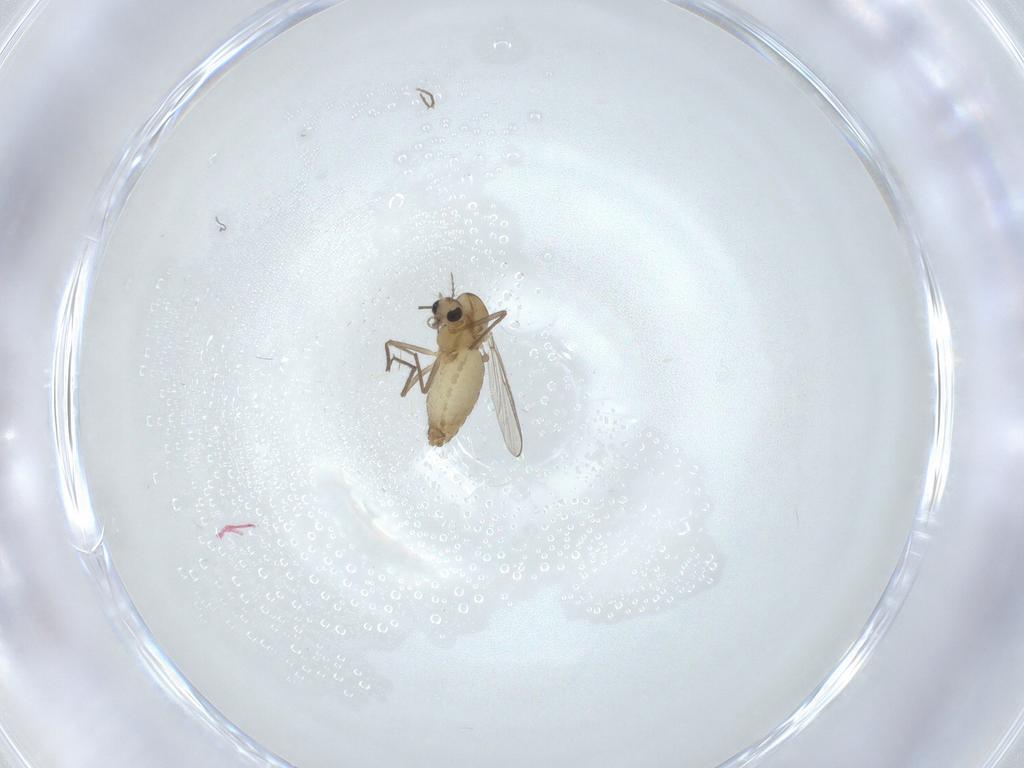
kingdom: Animalia
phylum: Arthropoda
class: Insecta
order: Diptera
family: Chironomidae
